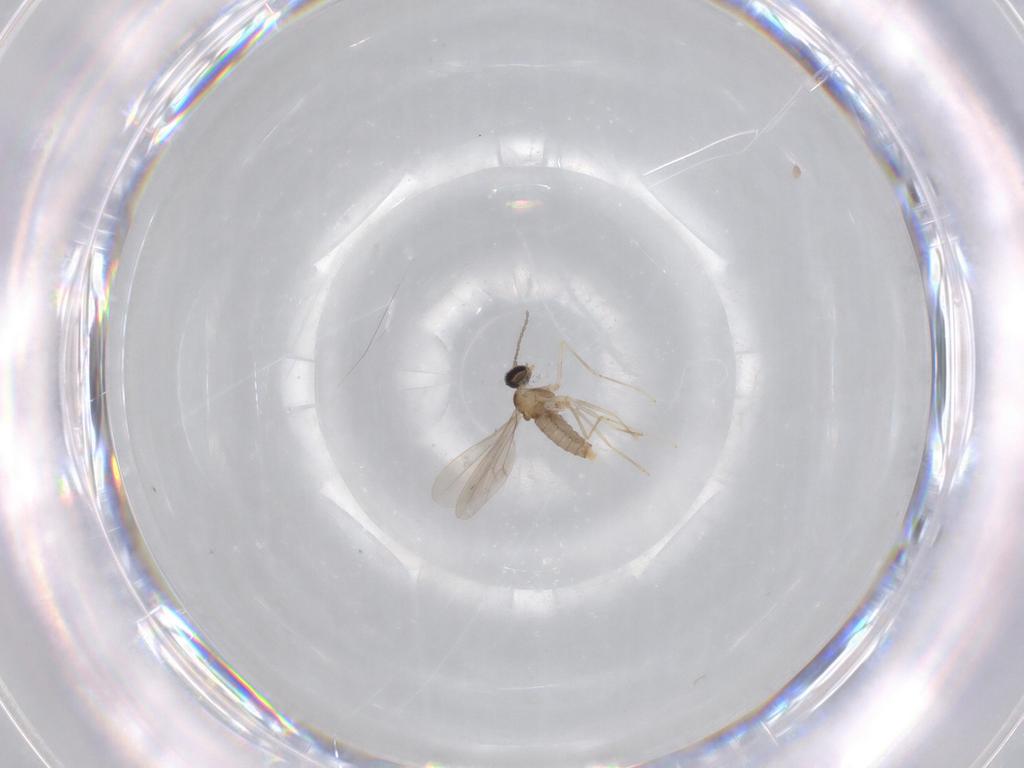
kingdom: Animalia
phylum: Arthropoda
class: Insecta
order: Diptera
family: Cecidomyiidae
